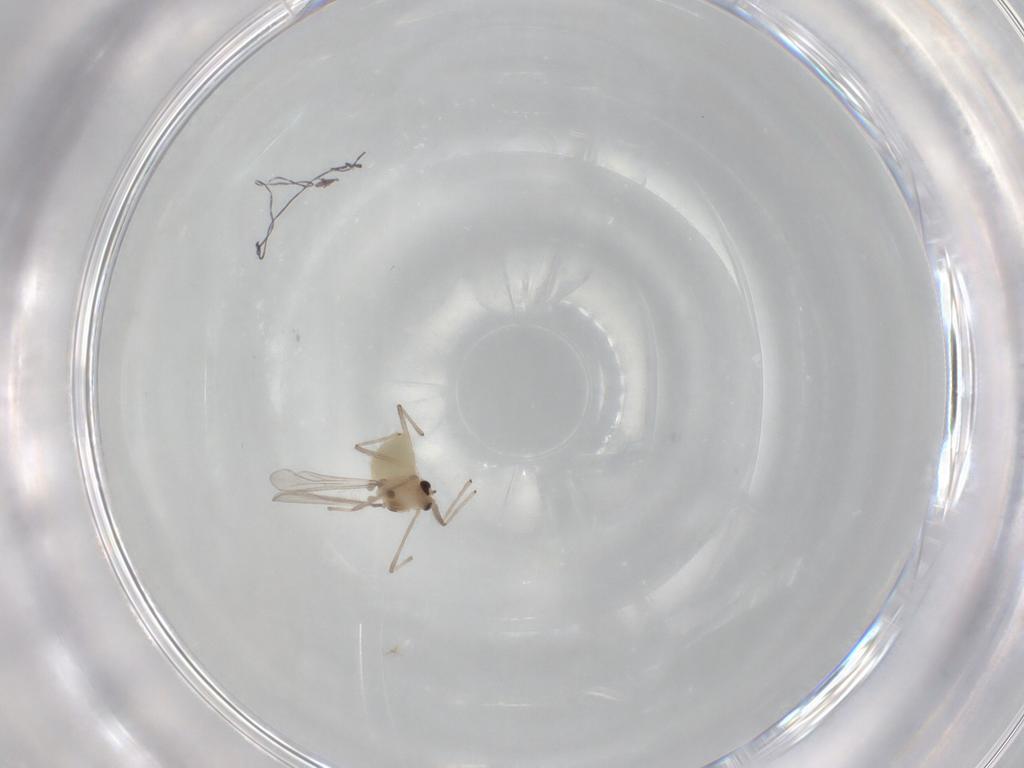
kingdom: Animalia
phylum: Arthropoda
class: Insecta
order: Diptera
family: Chironomidae
